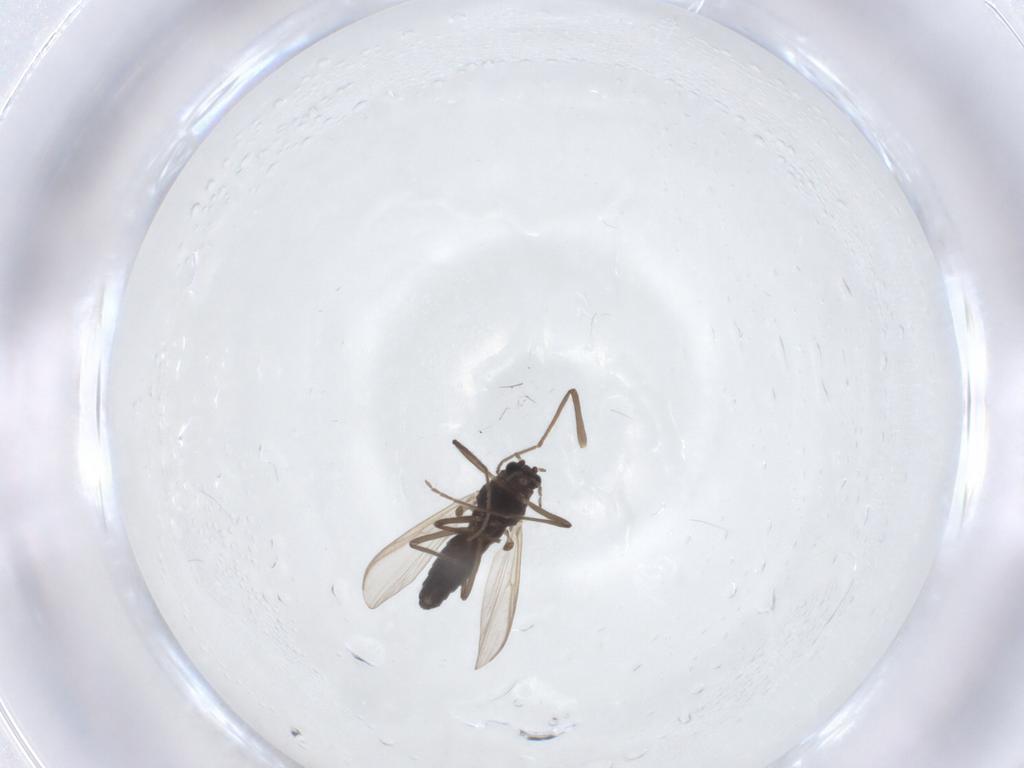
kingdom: Animalia
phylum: Arthropoda
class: Insecta
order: Diptera
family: Chironomidae
